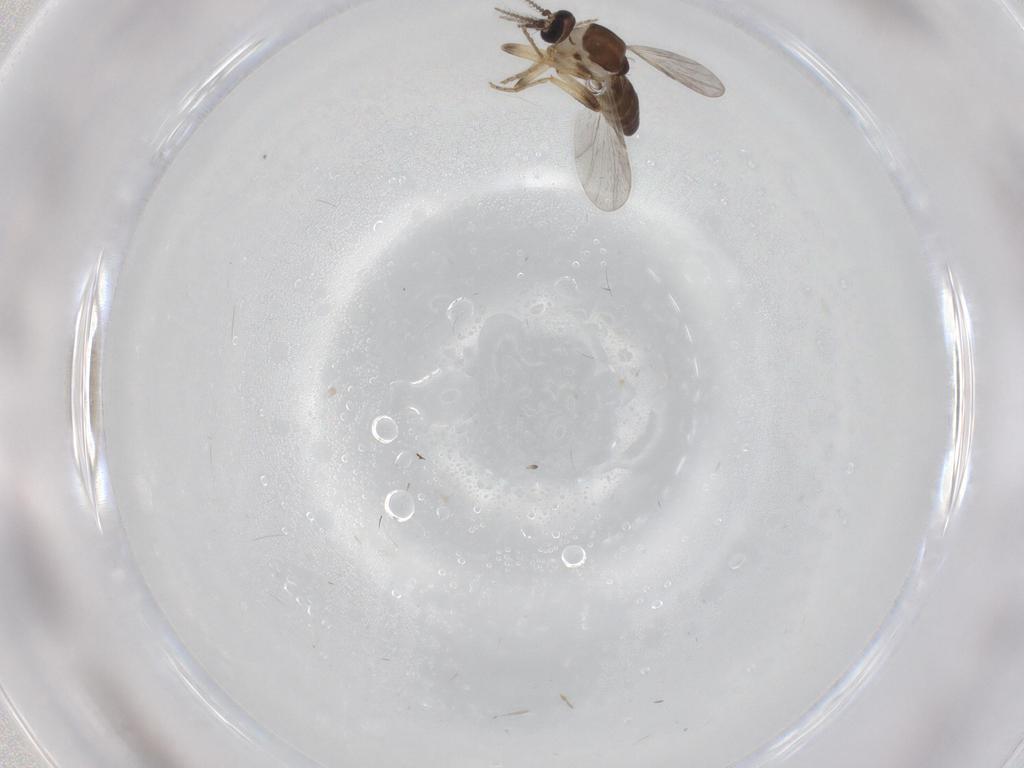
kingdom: Animalia
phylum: Arthropoda
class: Insecta
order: Diptera
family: Ceratopogonidae
